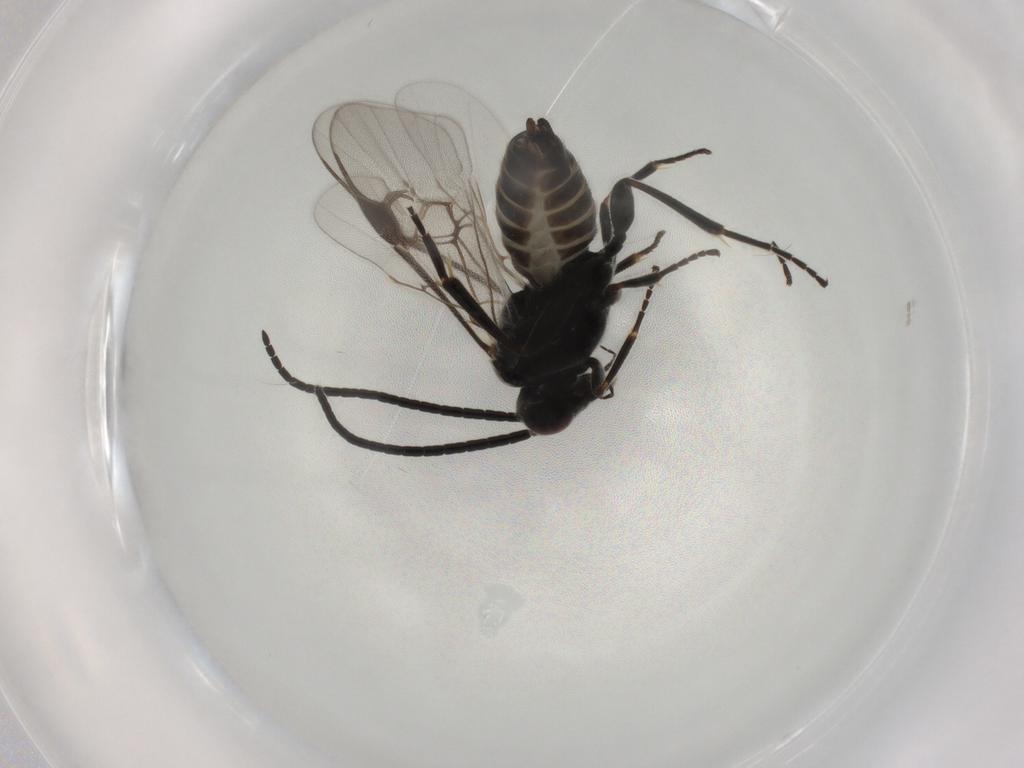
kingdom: Animalia
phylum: Arthropoda
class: Insecta
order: Hymenoptera
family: Braconidae
